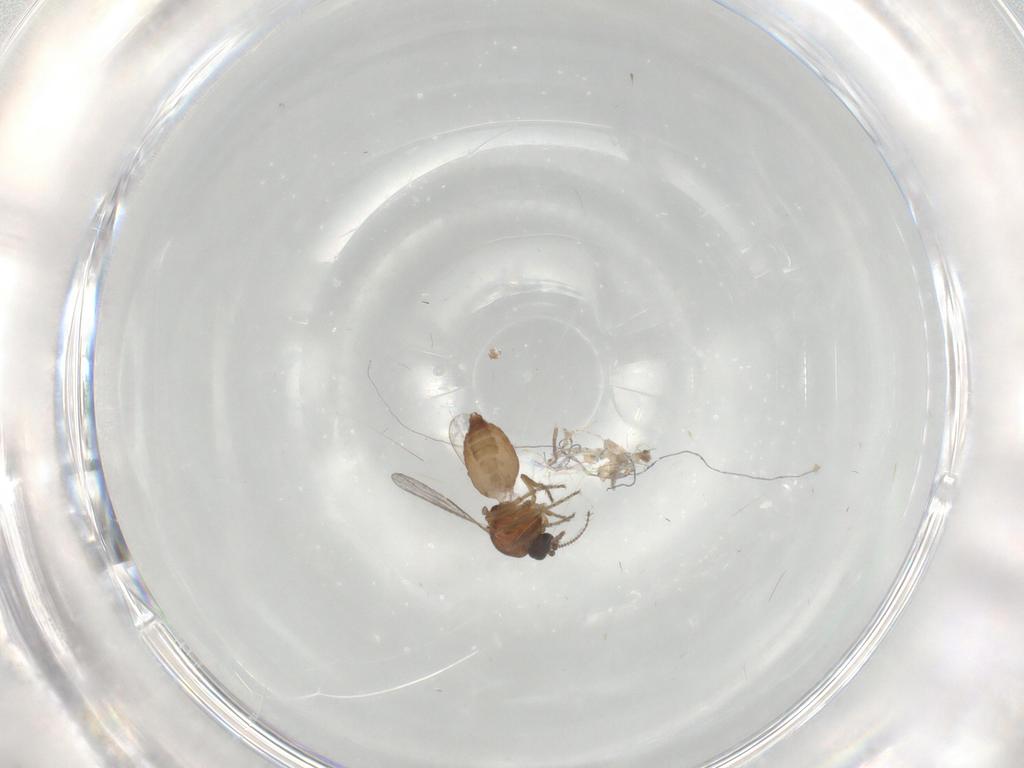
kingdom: Animalia
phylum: Arthropoda
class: Insecta
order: Diptera
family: Ceratopogonidae
